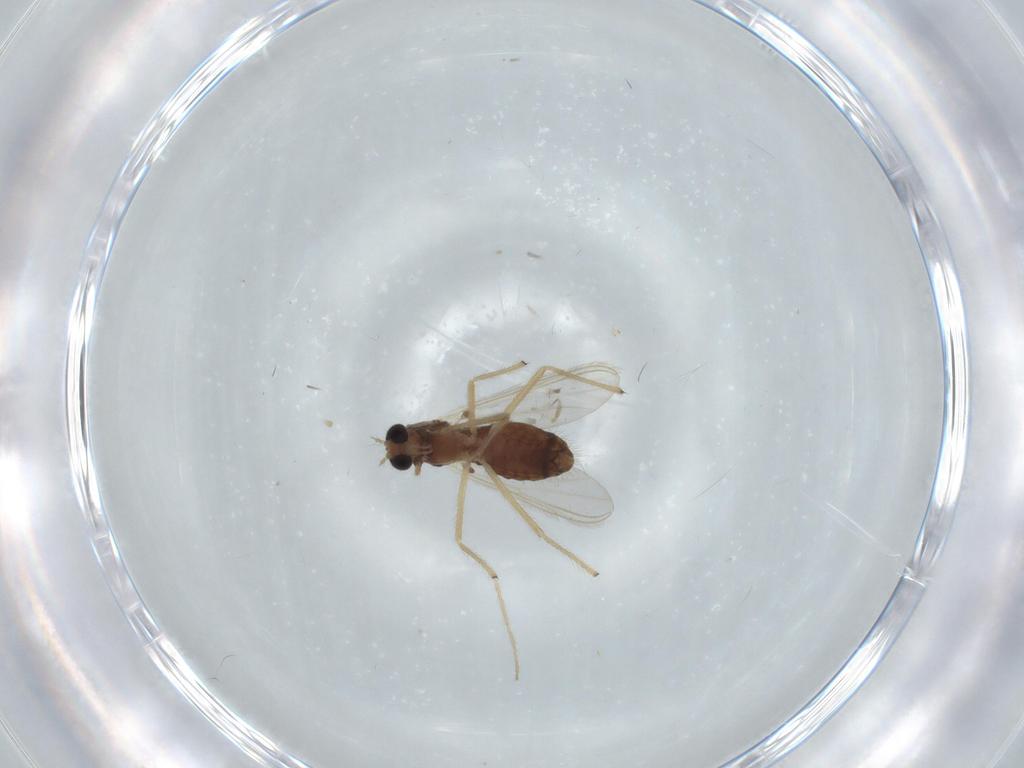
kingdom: Animalia
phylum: Arthropoda
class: Insecta
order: Diptera
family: Chironomidae
